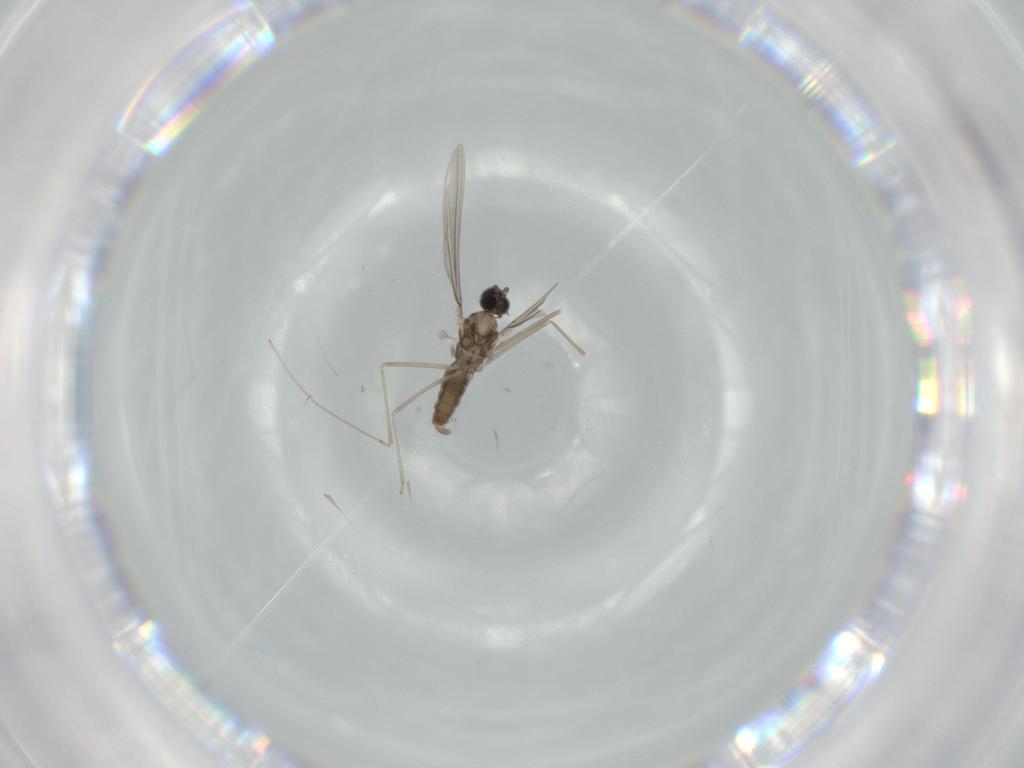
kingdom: Animalia
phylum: Arthropoda
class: Insecta
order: Diptera
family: Cecidomyiidae
